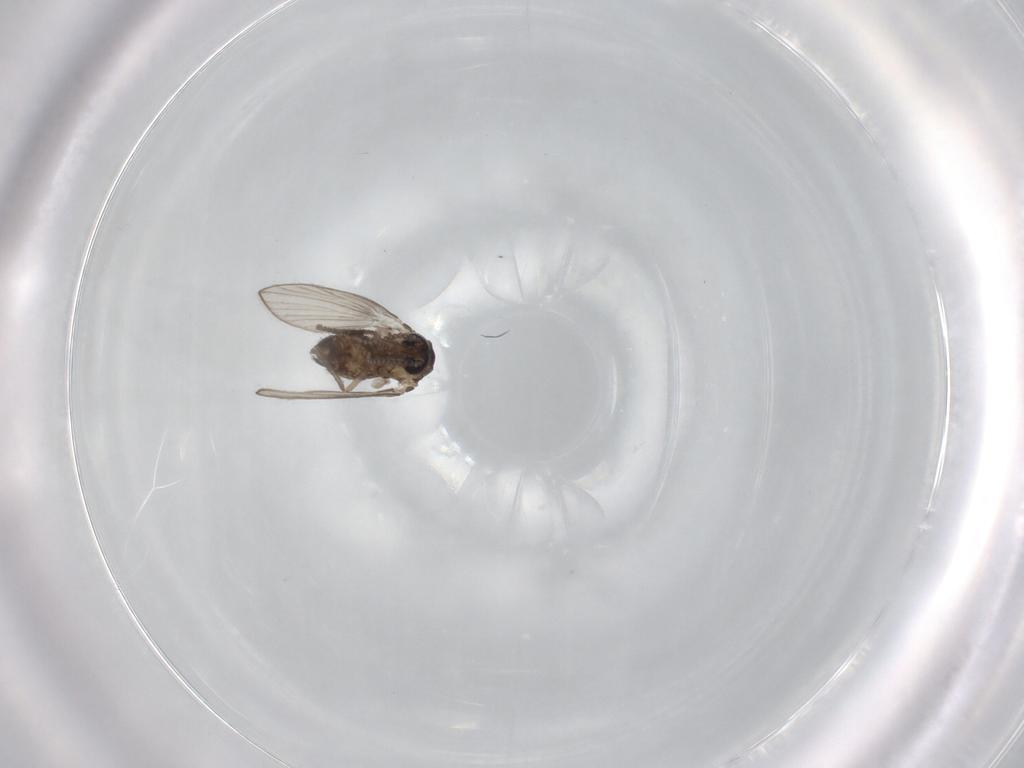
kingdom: Animalia
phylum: Arthropoda
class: Insecta
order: Diptera
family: Psychodidae
